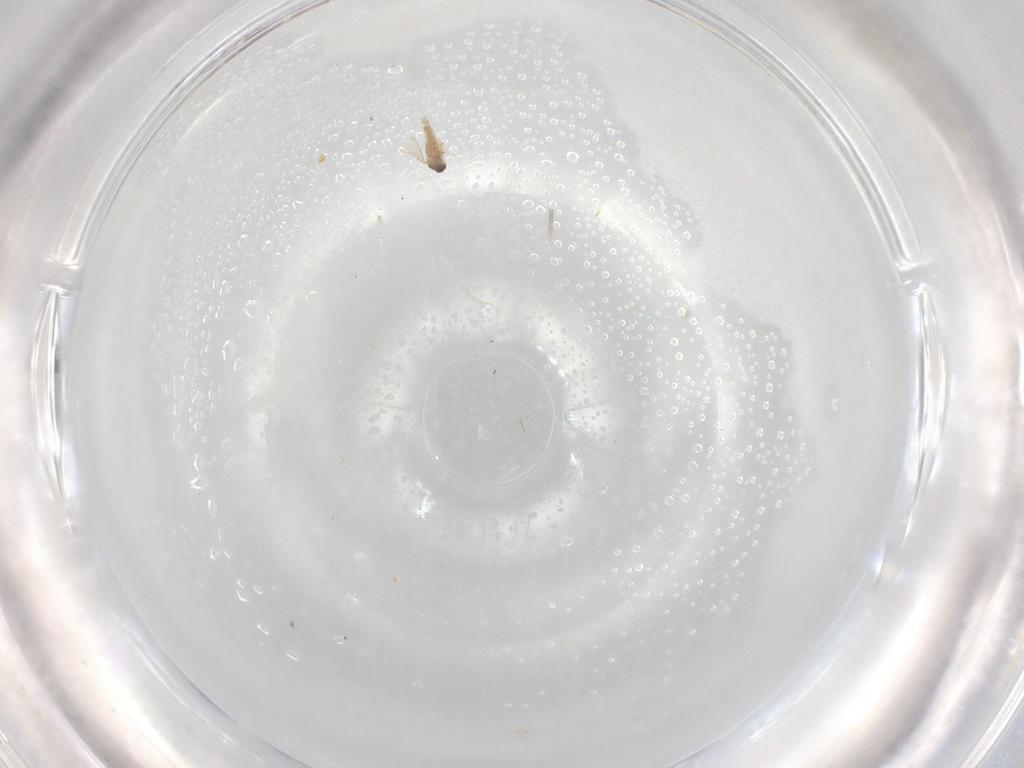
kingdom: Animalia
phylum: Arthropoda
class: Insecta
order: Diptera
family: Cecidomyiidae
